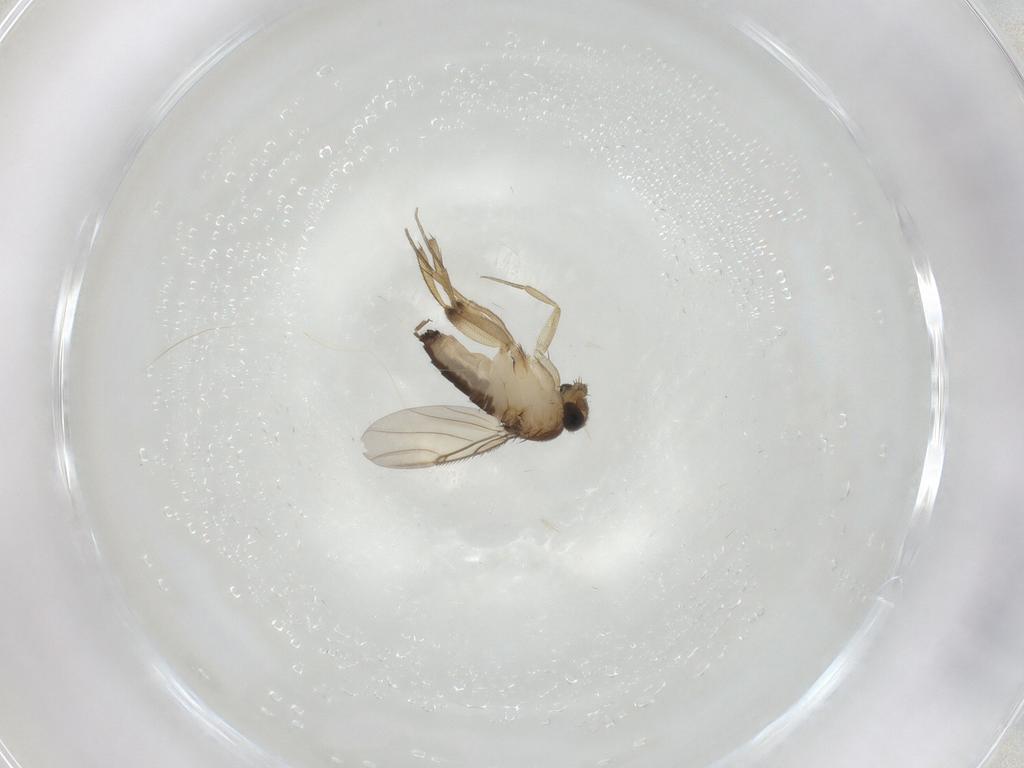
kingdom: Animalia
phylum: Arthropoda
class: Insecta
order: Diptera
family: Phoridae
